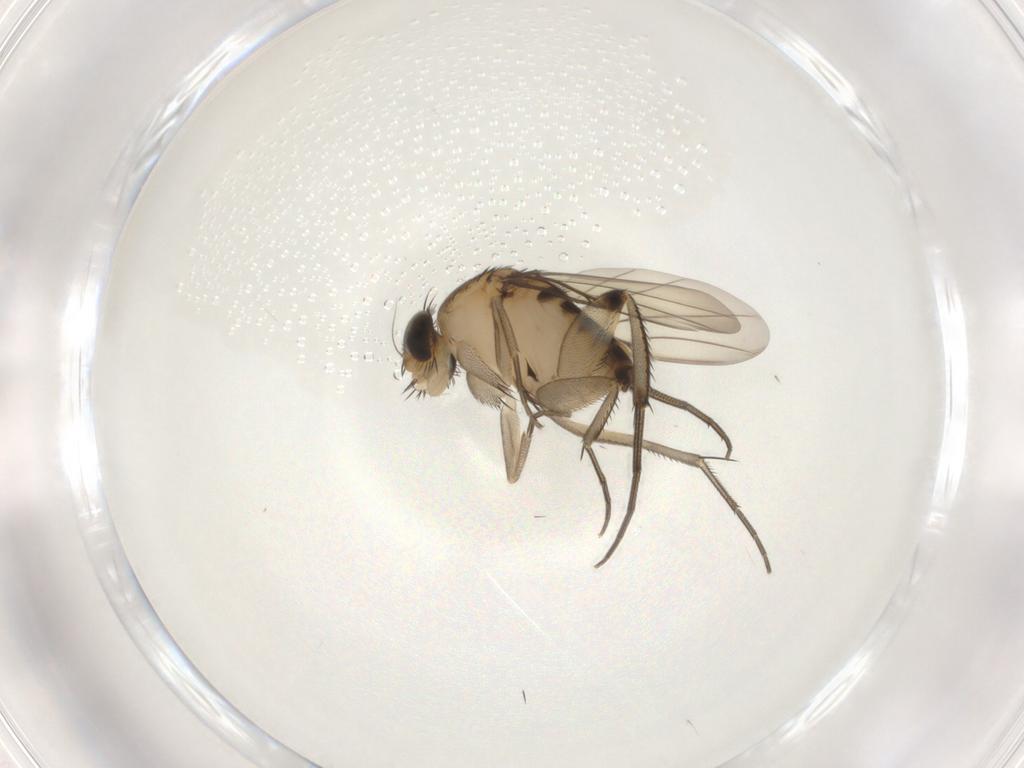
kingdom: Animalia
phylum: Arthropoda
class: Insecta
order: Diptera
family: Phoridae
